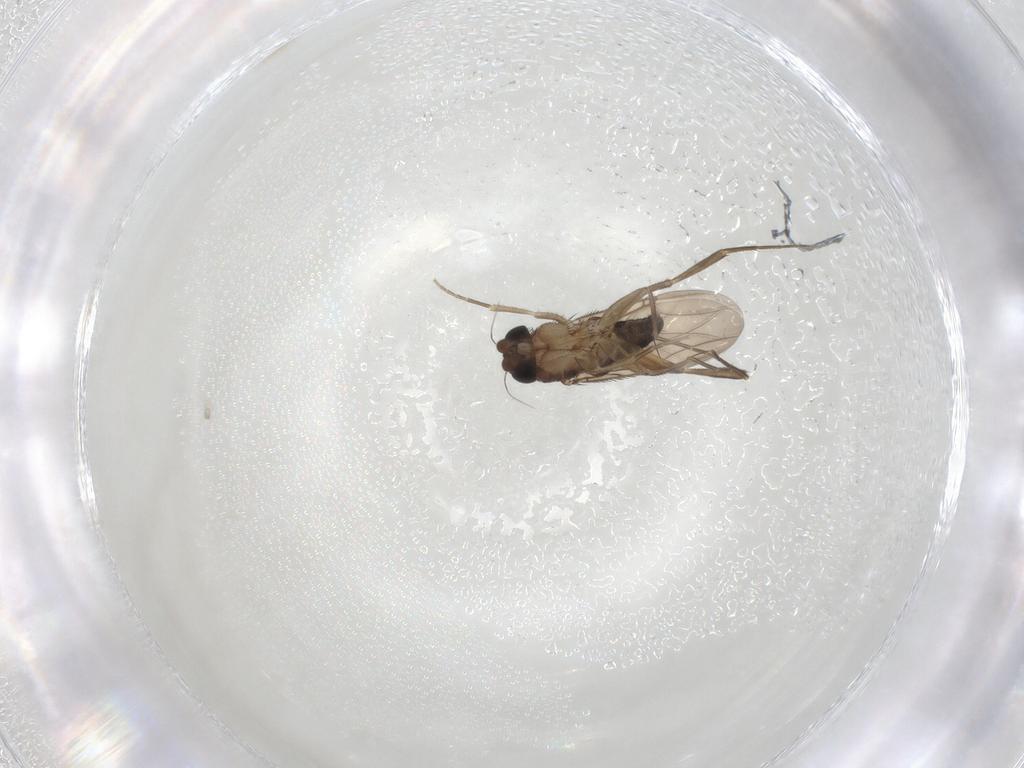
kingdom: Animalia
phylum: Arthropoda
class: Insecta
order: Diptera
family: Phoridae
